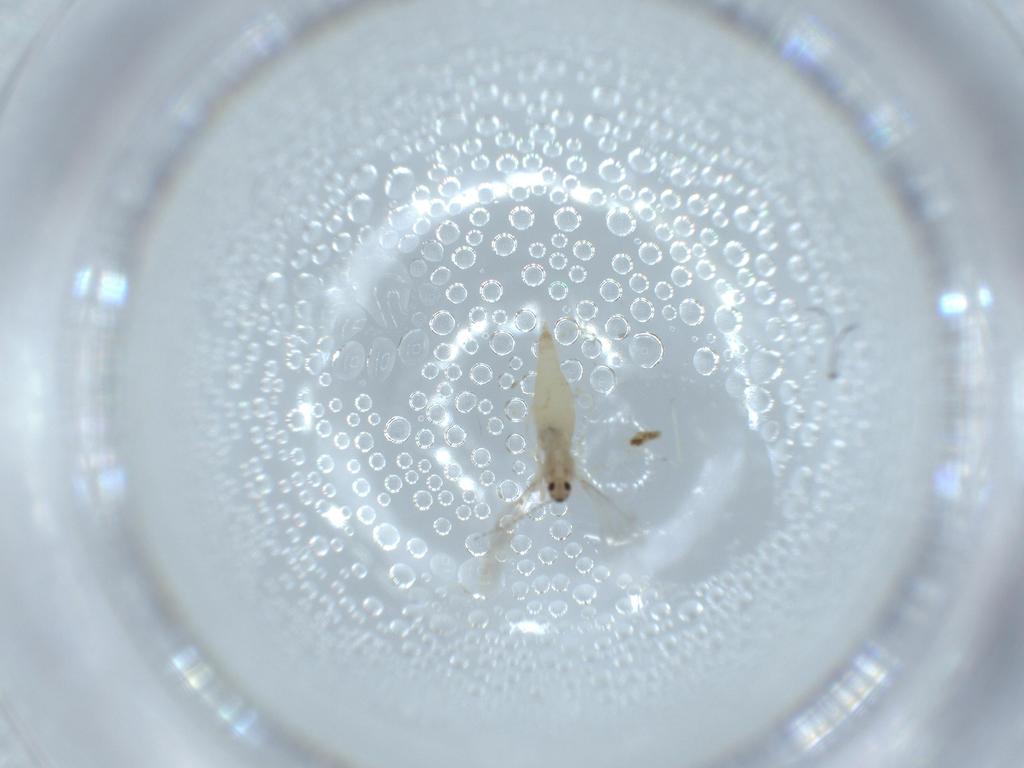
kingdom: Animalia
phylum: Arthropoda
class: Insecta
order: Diptera
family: Cecidomyiidae
